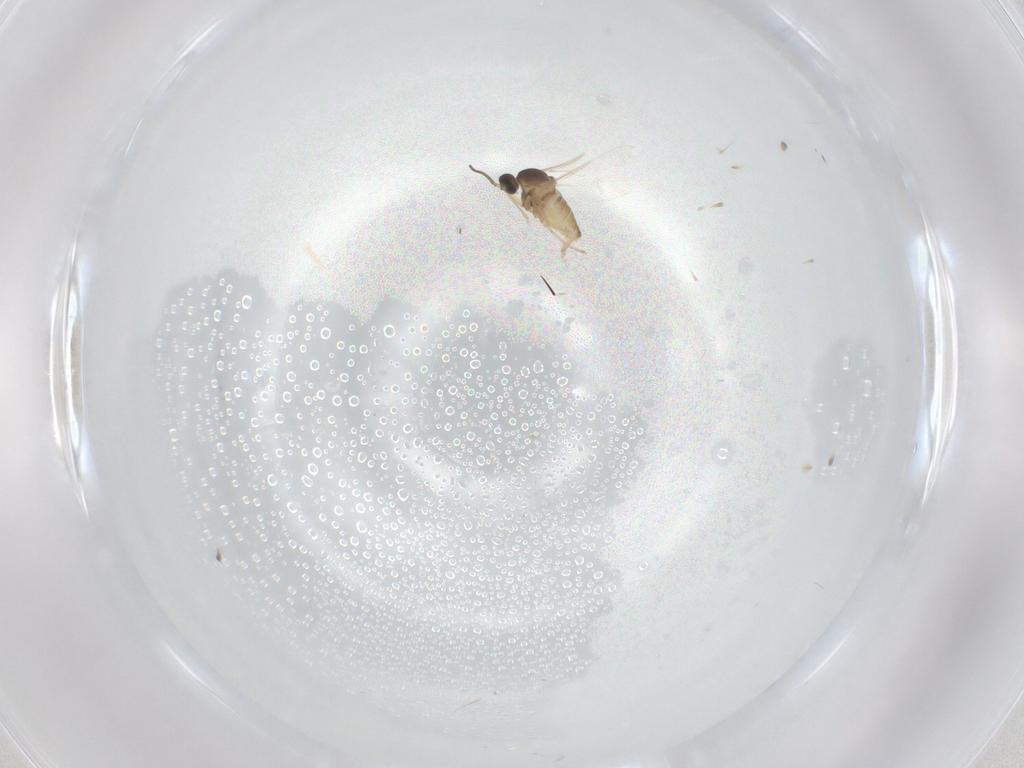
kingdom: Animalia
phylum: Arthropoda
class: Insecta
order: Diptera
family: Cecidomyiidae
